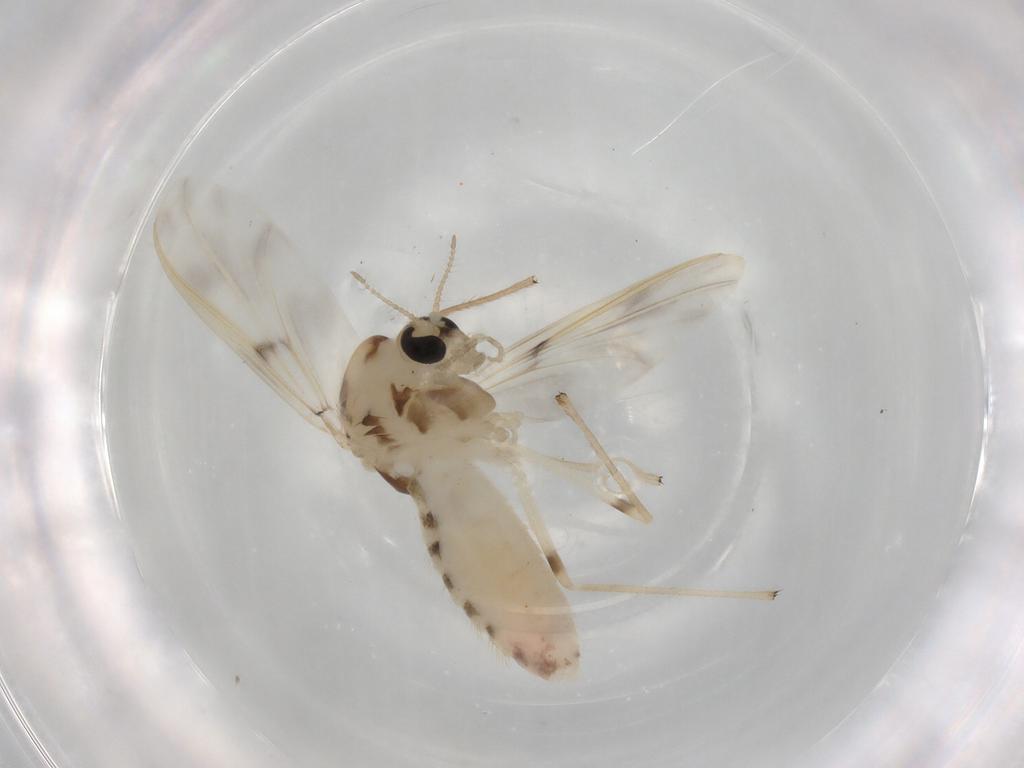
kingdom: Animalia
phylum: Arthropoda
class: Insecta
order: Diptera
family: Chironomidae
